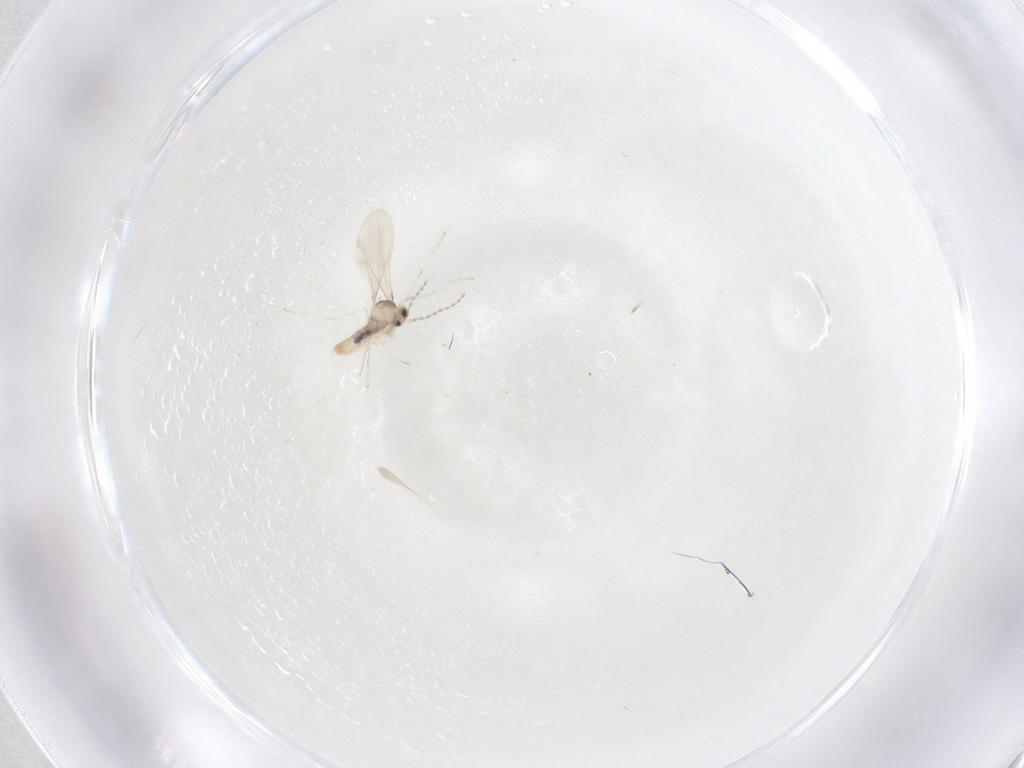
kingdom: Animalia
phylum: Arthropoda
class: Insecta
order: Diptera
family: Cecidomyiidae
